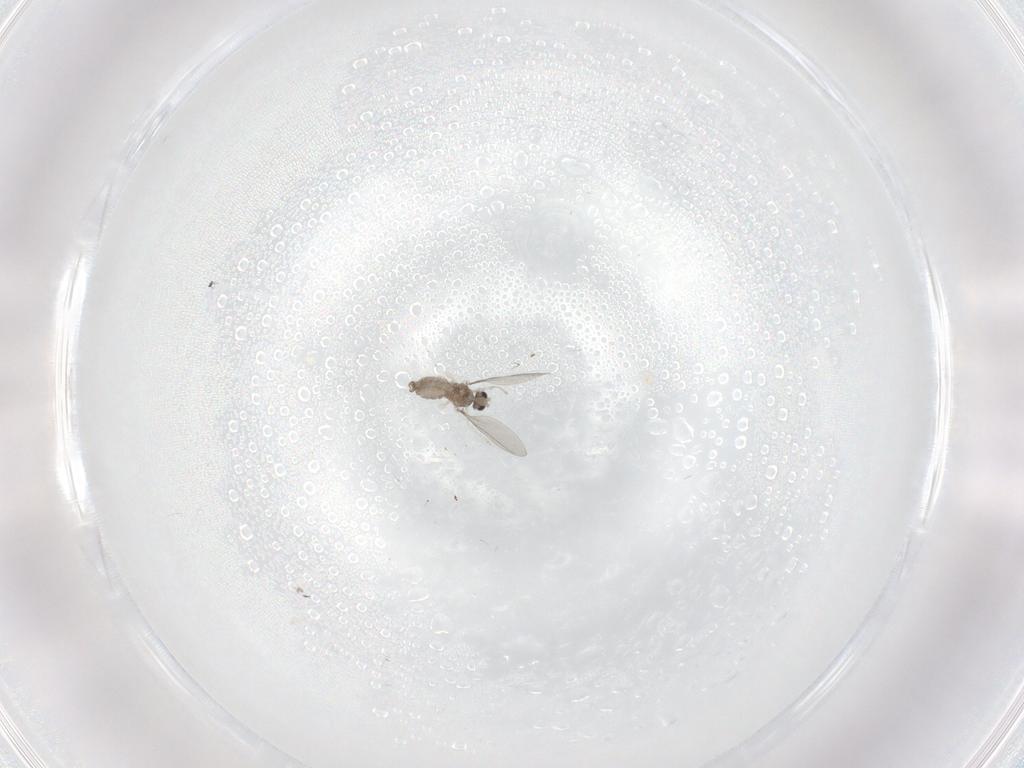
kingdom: Animalia
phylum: Arthropoda
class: Insecta
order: Diptera
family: Cecidomyiidae
